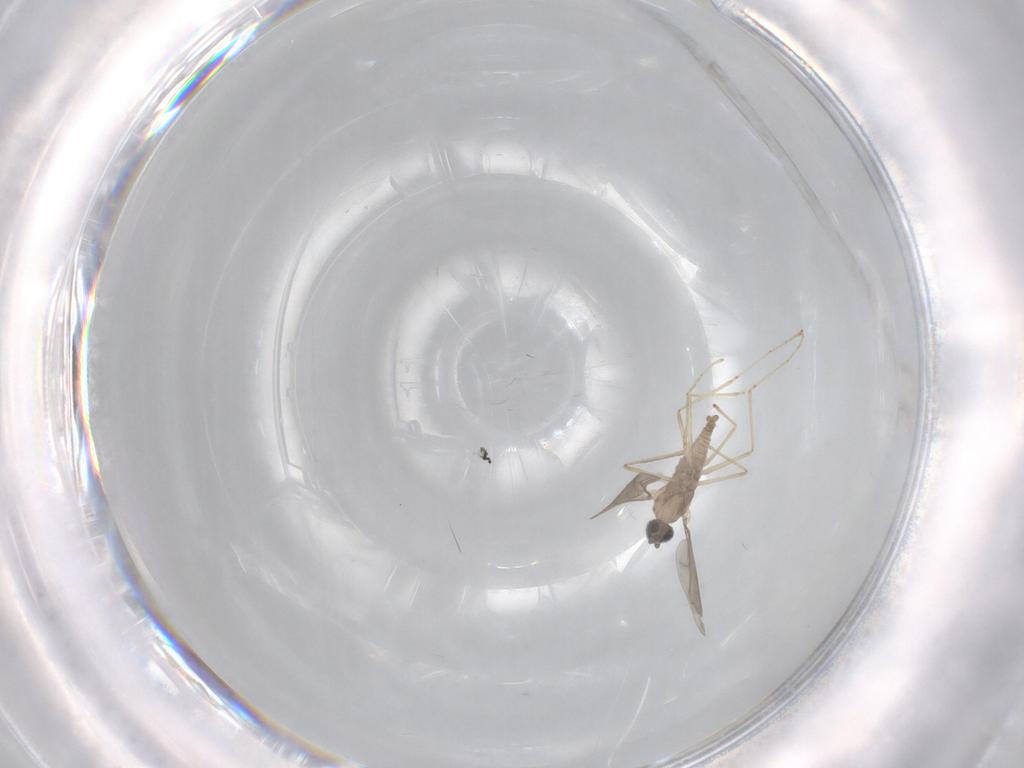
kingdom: Animalia
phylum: Arthropoda
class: Insecta
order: Diptera
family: Cecidomyiidae
